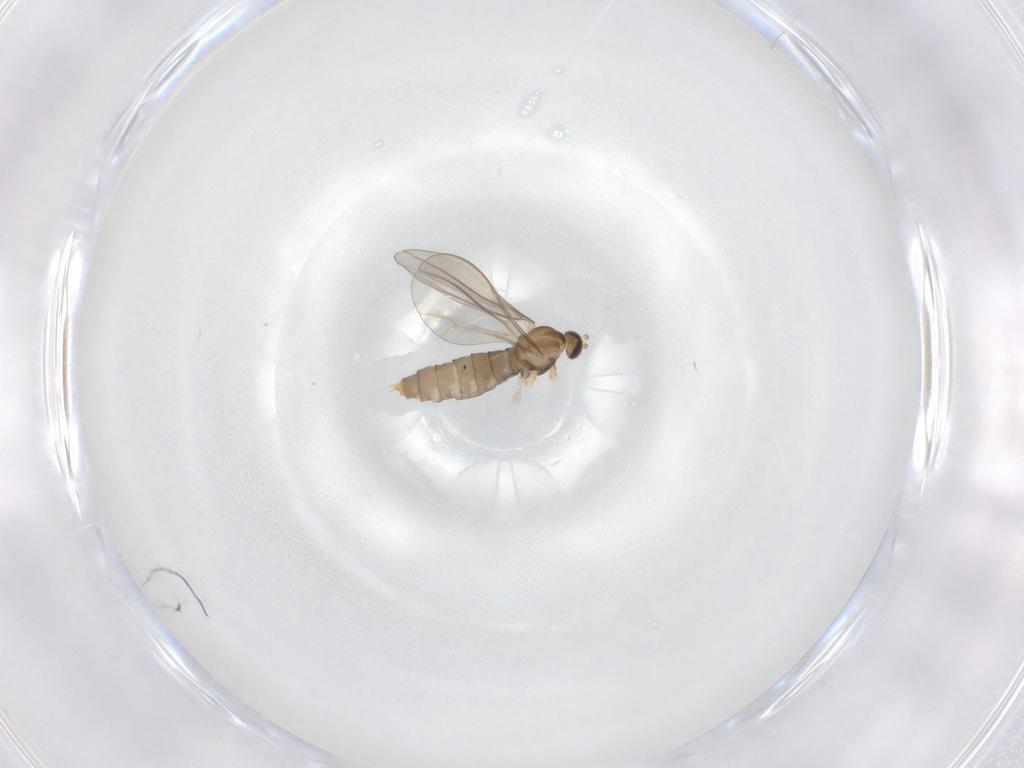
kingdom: Animalia
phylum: Arthropoda
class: Insecta
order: Diptera
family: Cecidomyiidae
